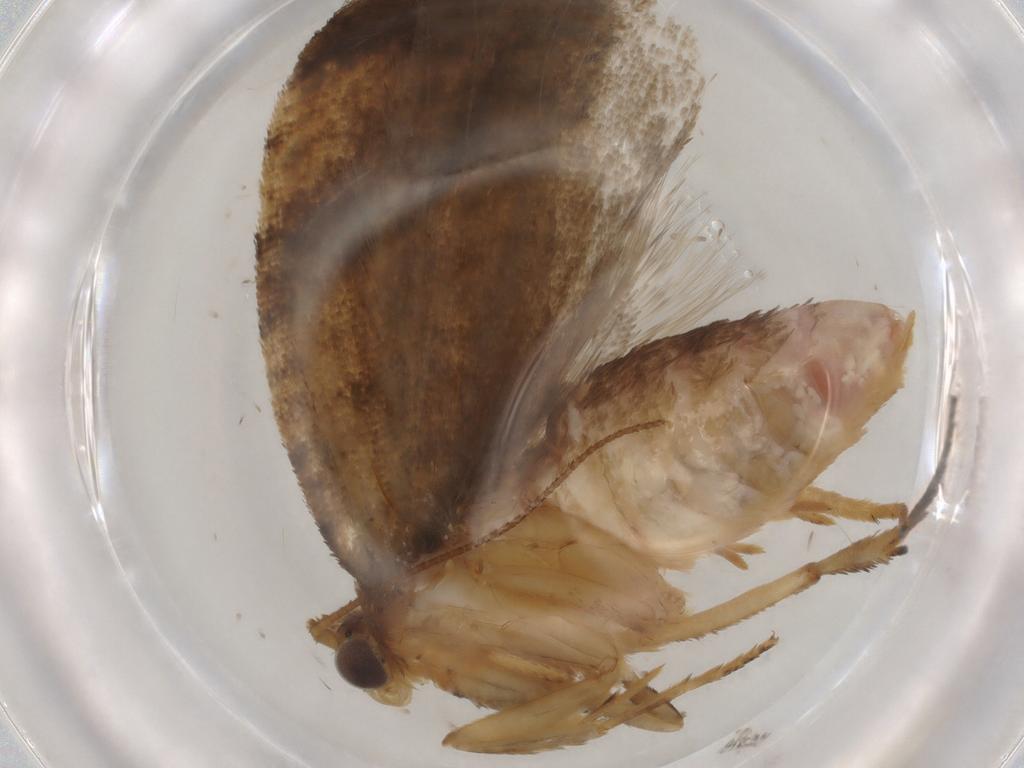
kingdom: Animalia
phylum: Arthropoda
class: Insecta
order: Lepidoptera
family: Tortricidae
